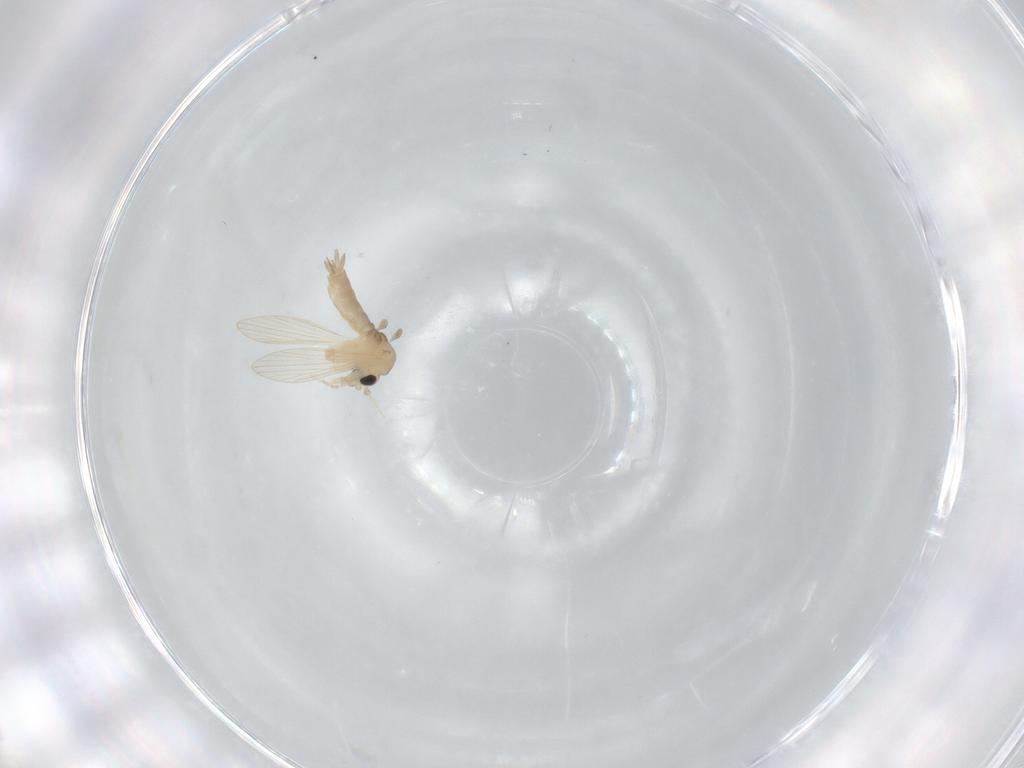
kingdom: Animalia
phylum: Arthropoda
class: Insecta
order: Diptera
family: Psychodidae
